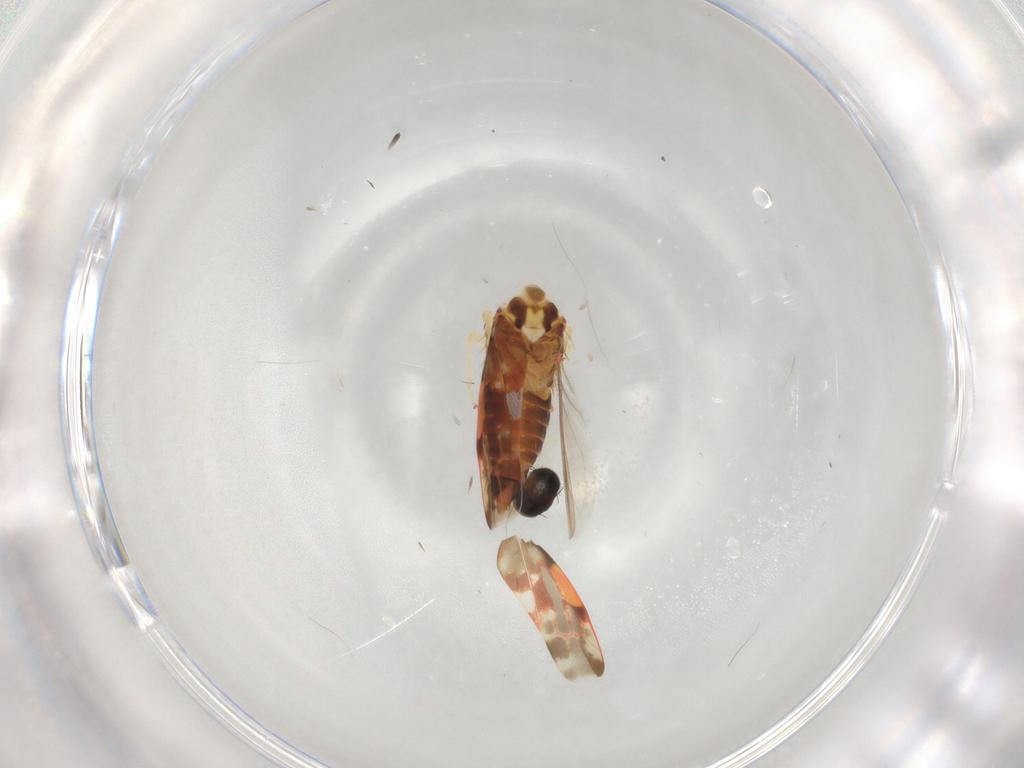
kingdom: Animalia
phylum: Arthropoda
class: Insecta
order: Hemiptera
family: Cicadellidae
